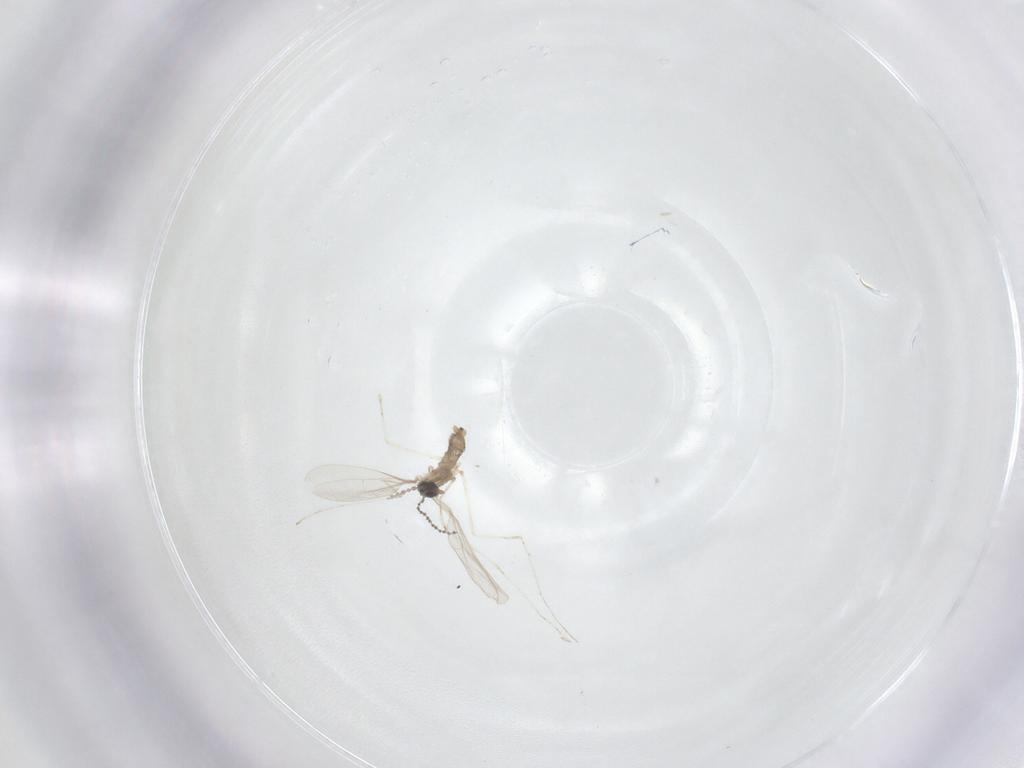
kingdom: Animalia
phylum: Arthropoda
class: Insecta
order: Diptera
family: Cecidomyiidae
